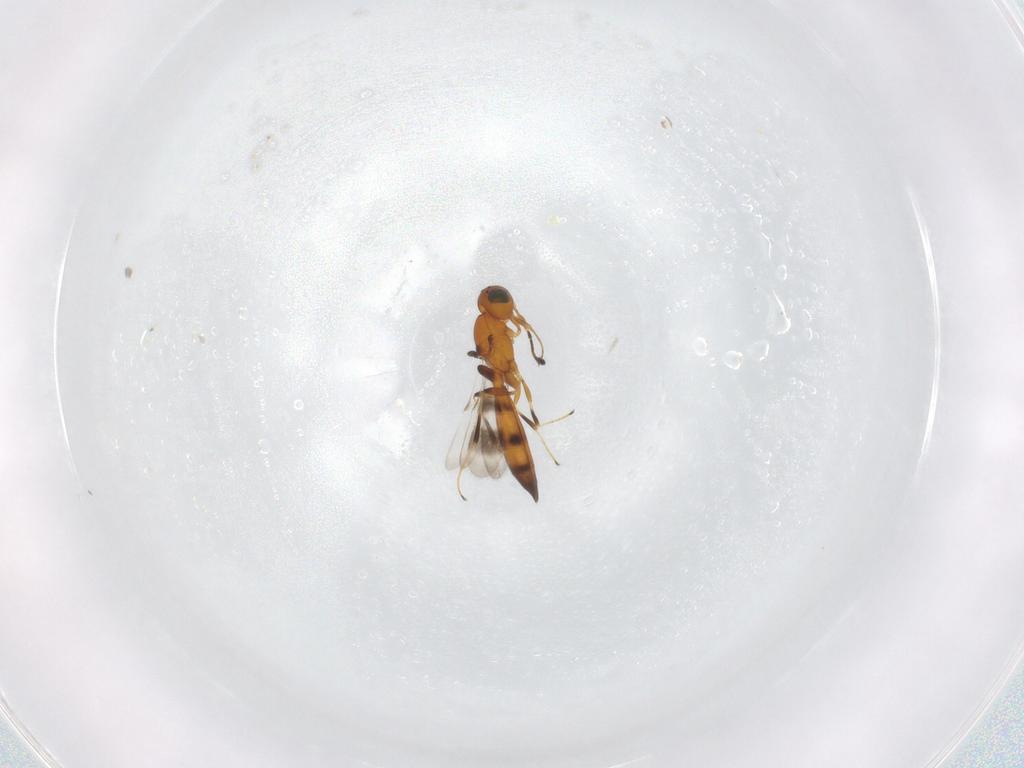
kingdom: Animalia
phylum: Arthropoda
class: Insecta
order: Hymenoptera
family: Scelionidae
